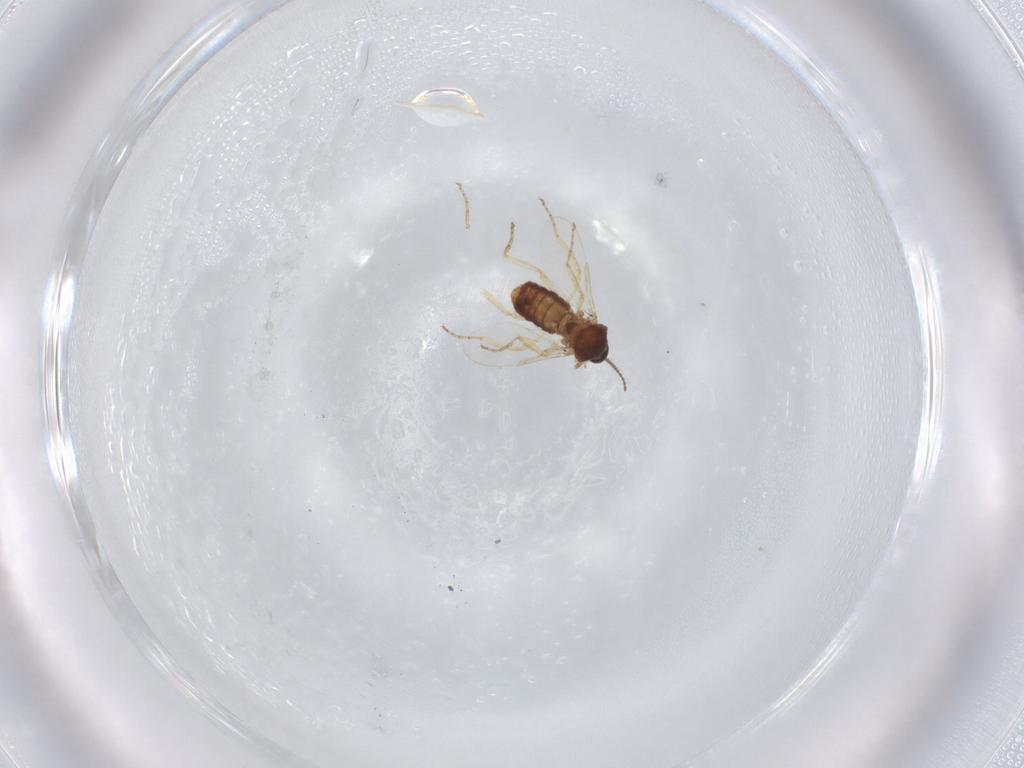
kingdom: Animalia
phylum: Arthropoda
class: Insecta
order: Diptera
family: Ceratopogonidae
